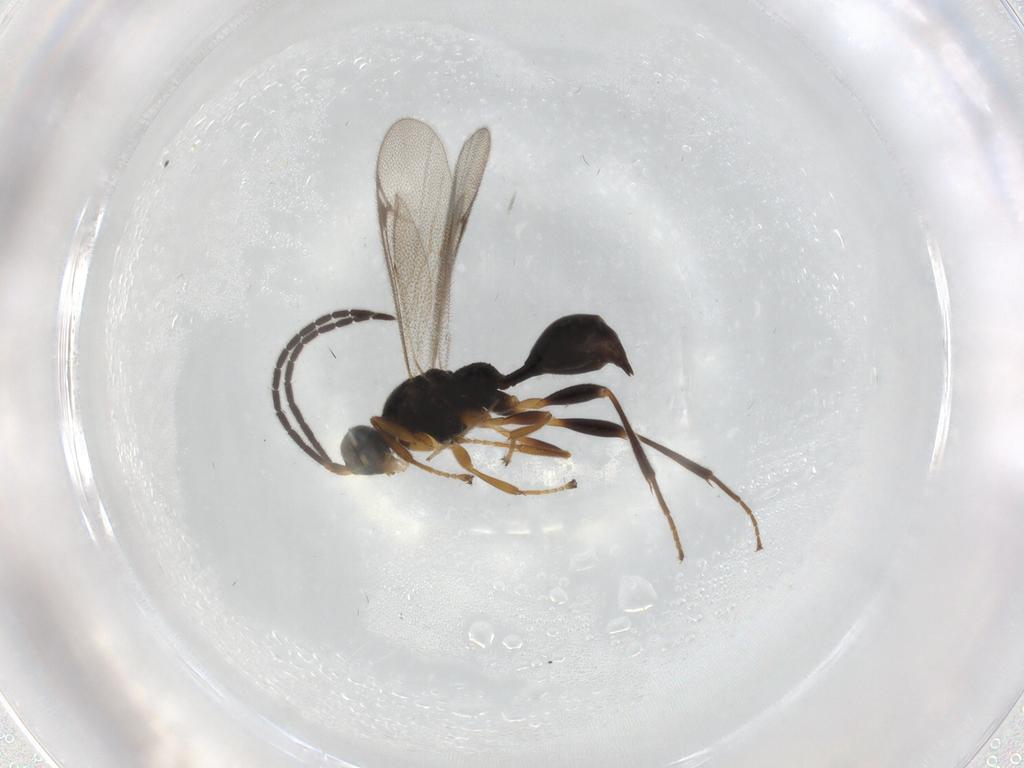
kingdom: Animalia
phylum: Arthropoda
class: Insecta
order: Hymenoptera
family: Proctotrupidae
